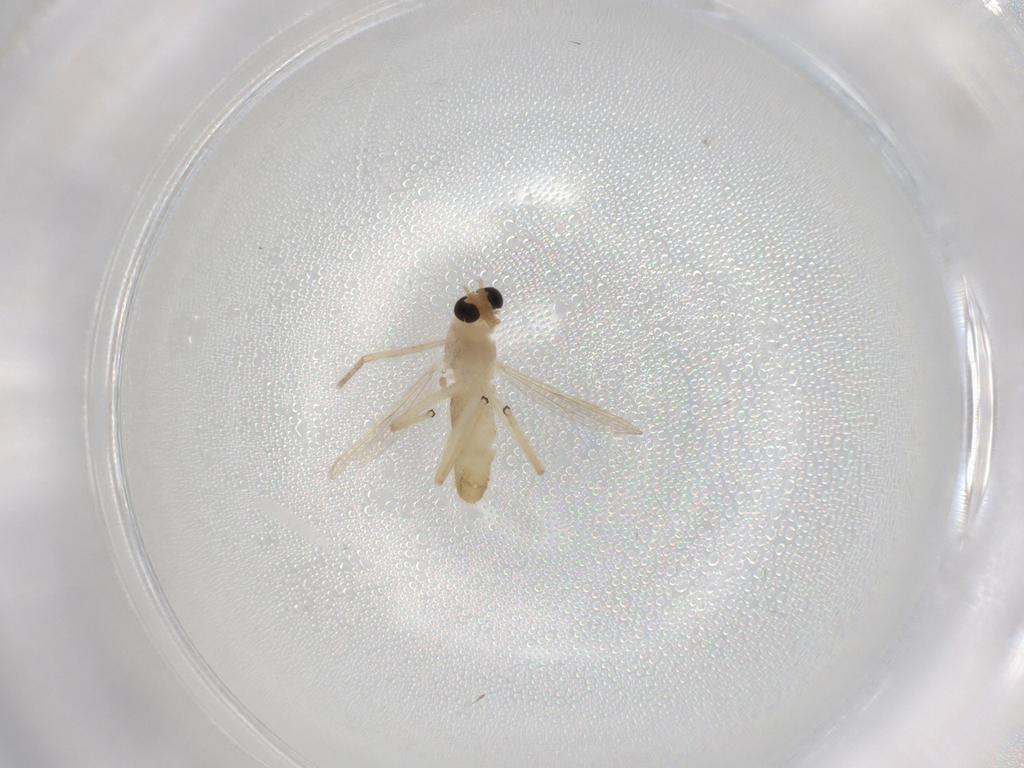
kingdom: Animalia
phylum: Arthropoda
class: Insecta
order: Diptera
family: Chironomidae
